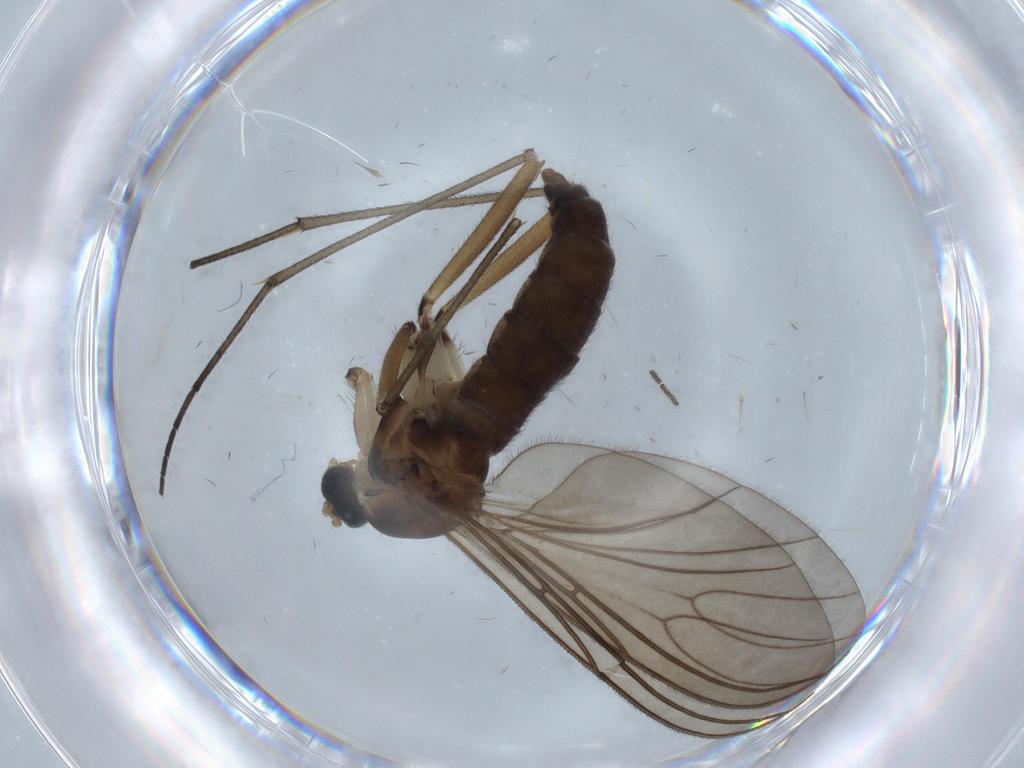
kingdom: Animalia
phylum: Arthropoda
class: Insecta
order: Diptera
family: Sciaridae
